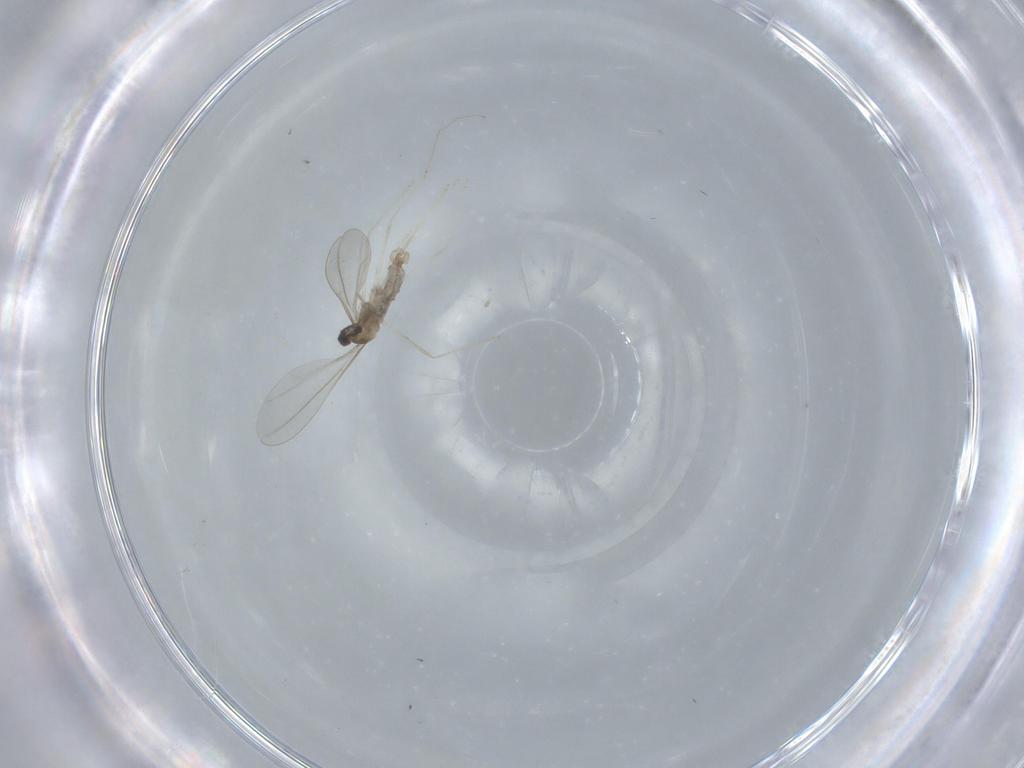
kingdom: Animalia
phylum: Arthropoda
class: Insecta
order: Diptera
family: Cecidomyiidae
